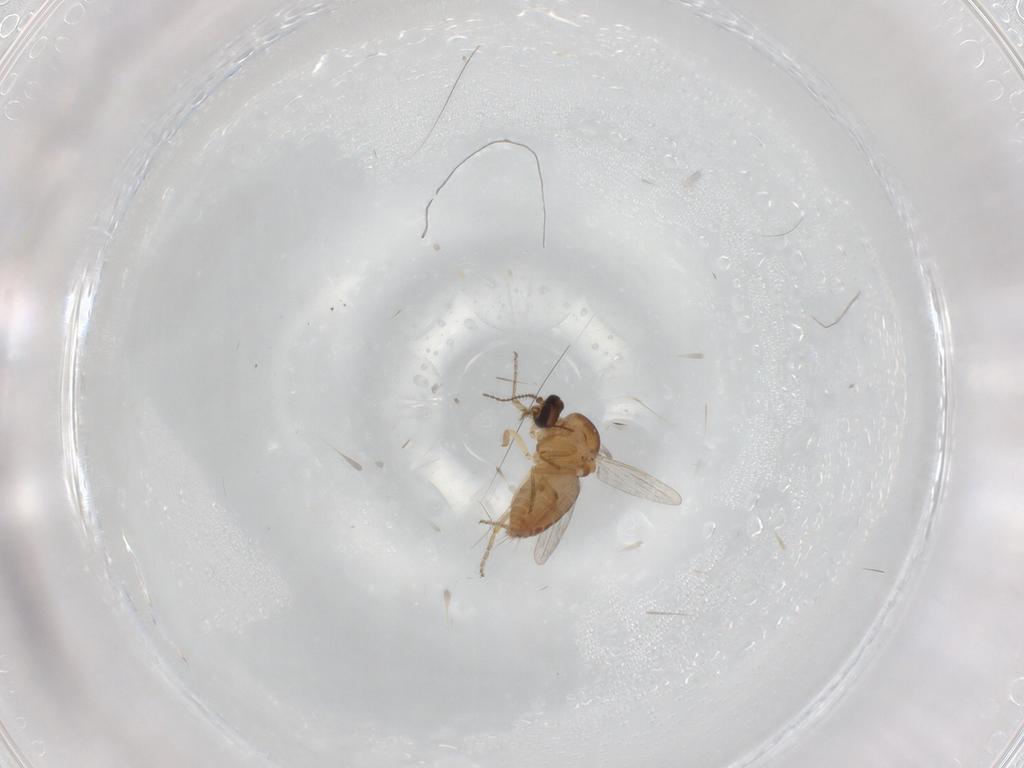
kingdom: Animalia
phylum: Arthropoda
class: Insecta
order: Diptera
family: Ceratopogonidae
